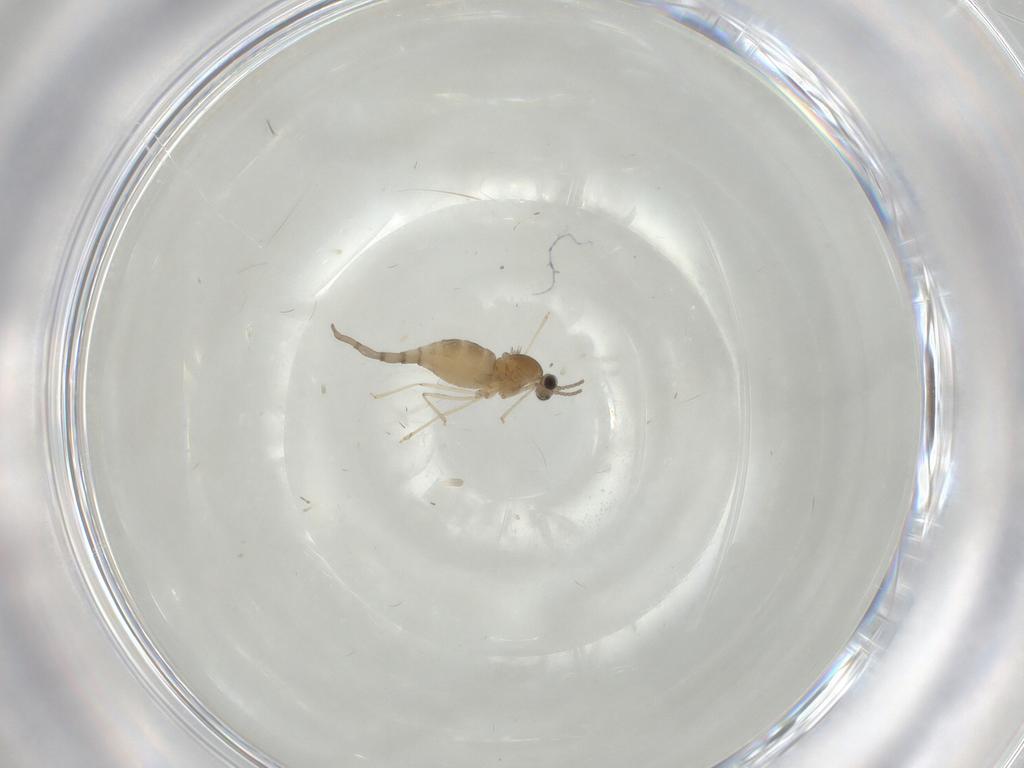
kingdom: Animalia
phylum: Arthropoda
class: Insecta
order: Diptera
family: Cecidomyiidae
